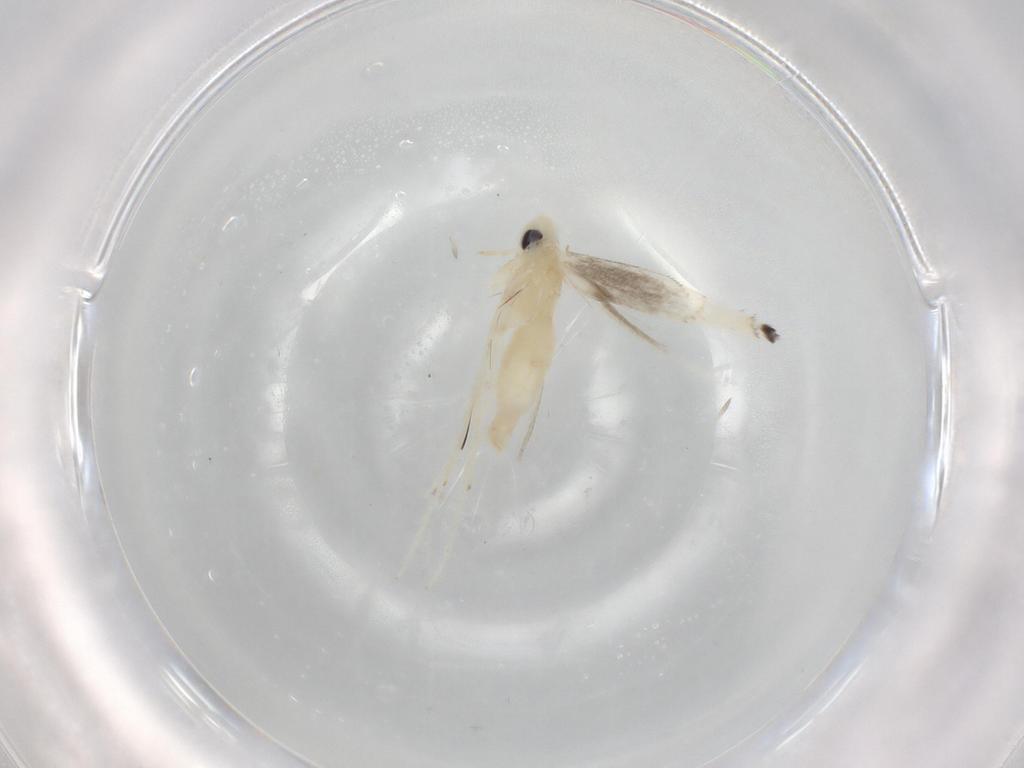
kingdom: Animalia
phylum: Arthropoda
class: Insecta
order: Lepidoptera
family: Gracillariidae
